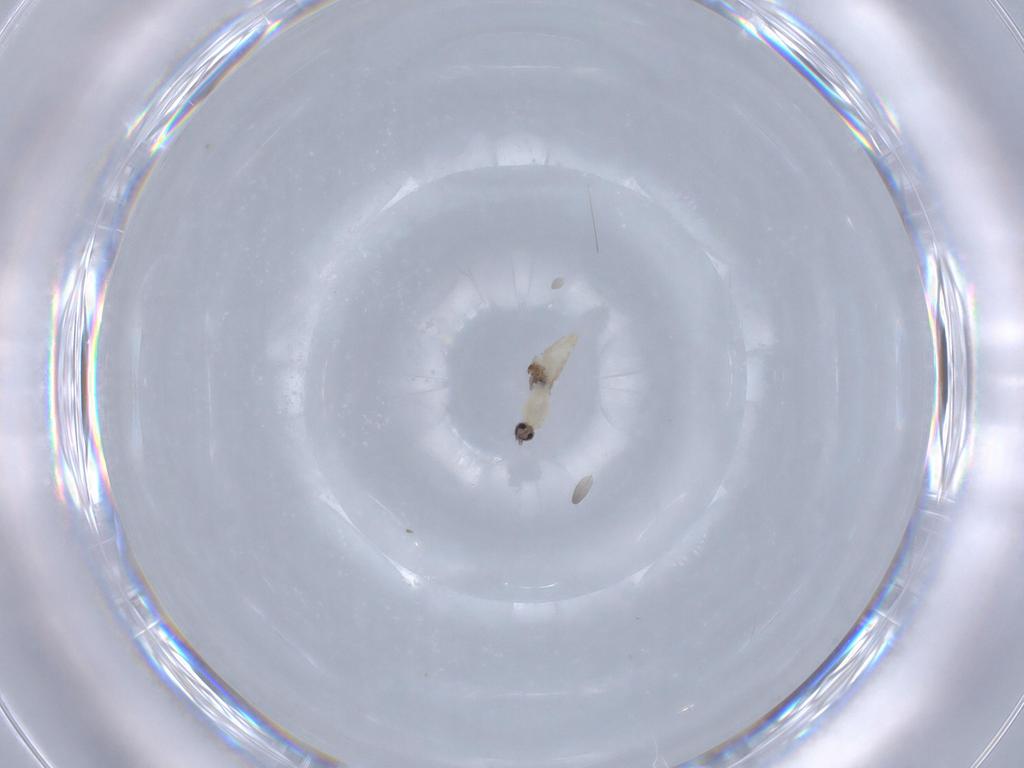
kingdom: Animalia
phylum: Arthropoda
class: Insecta
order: Diptera
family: Cecidomyiidae
